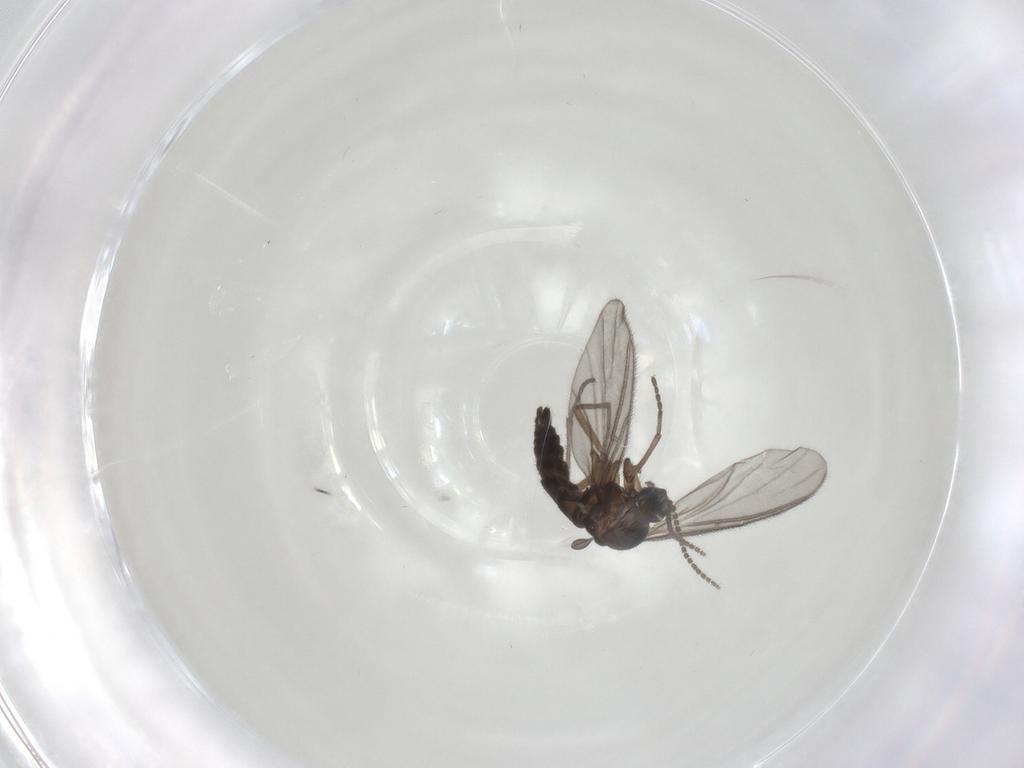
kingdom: Animalia
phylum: Arthropoda
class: Insecta
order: Diptera
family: Sciaridae
